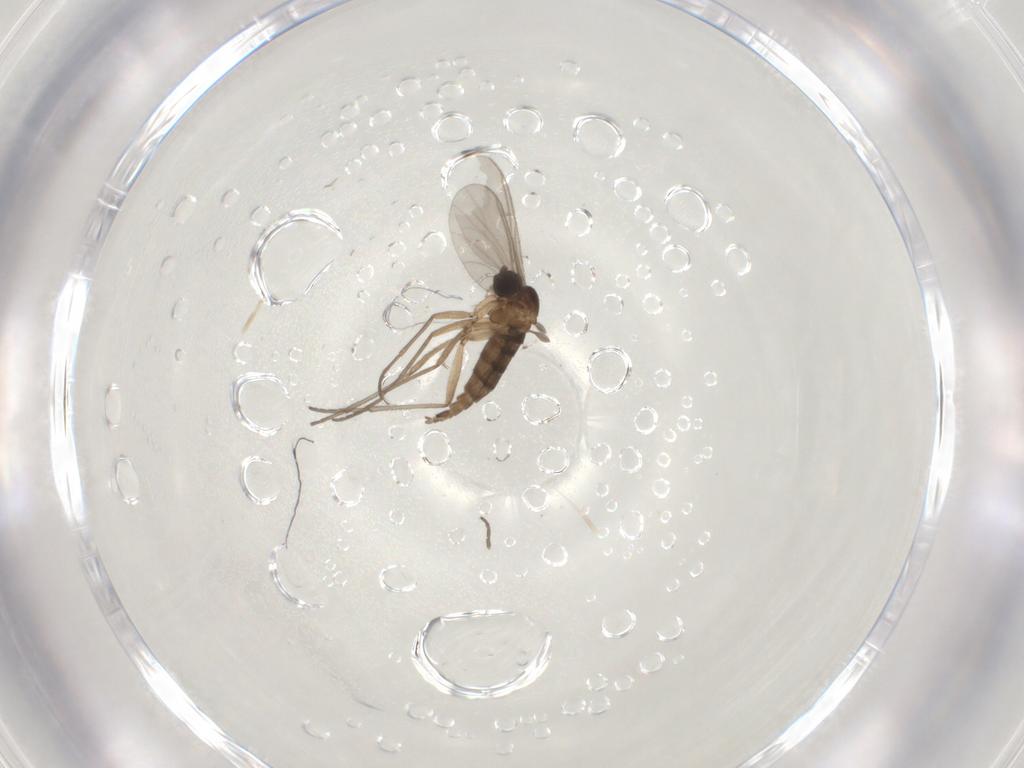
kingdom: Animalia
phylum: Arthropoda
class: Insecta
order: Diptera
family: Sciaridae
